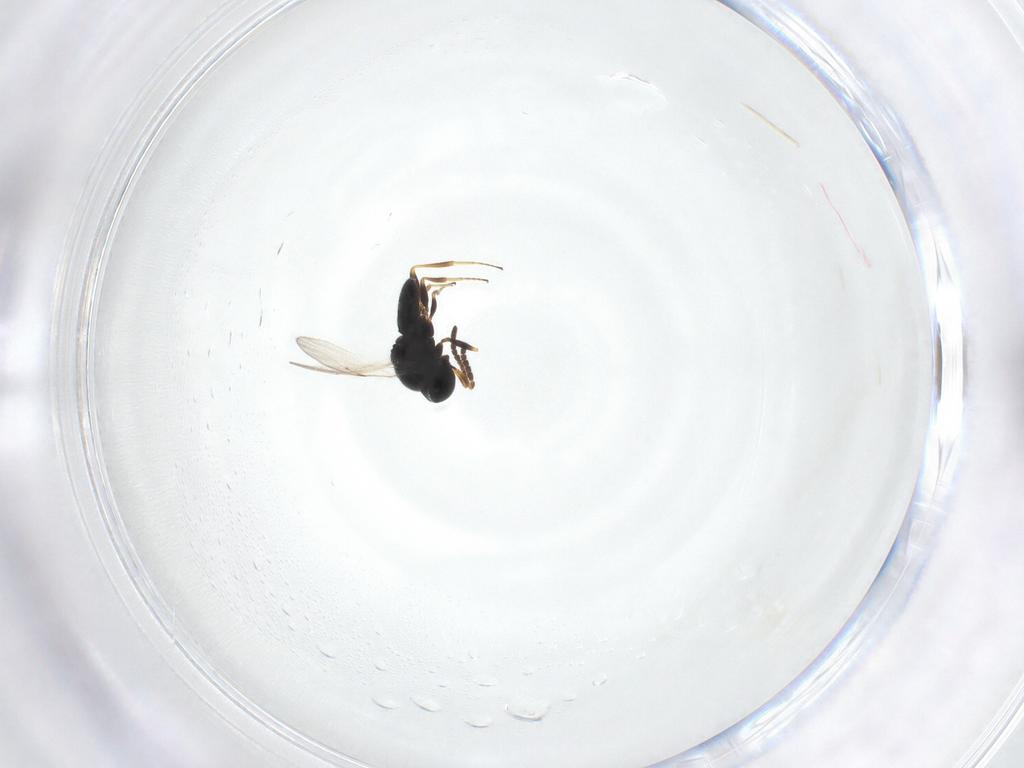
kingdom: Animalia
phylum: Arthropoda
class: Insecta
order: Hymenoptera
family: Scelionidae
